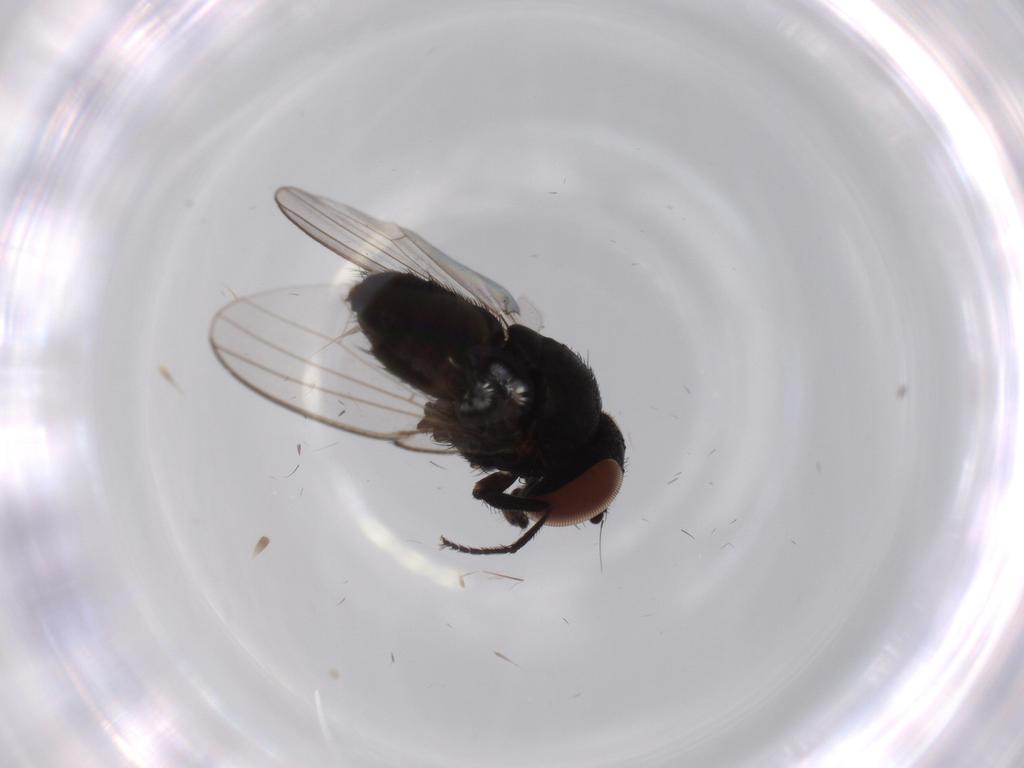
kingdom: Animalia
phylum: Arthropoda
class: Insecta
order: Diptera
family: Milichiidae
